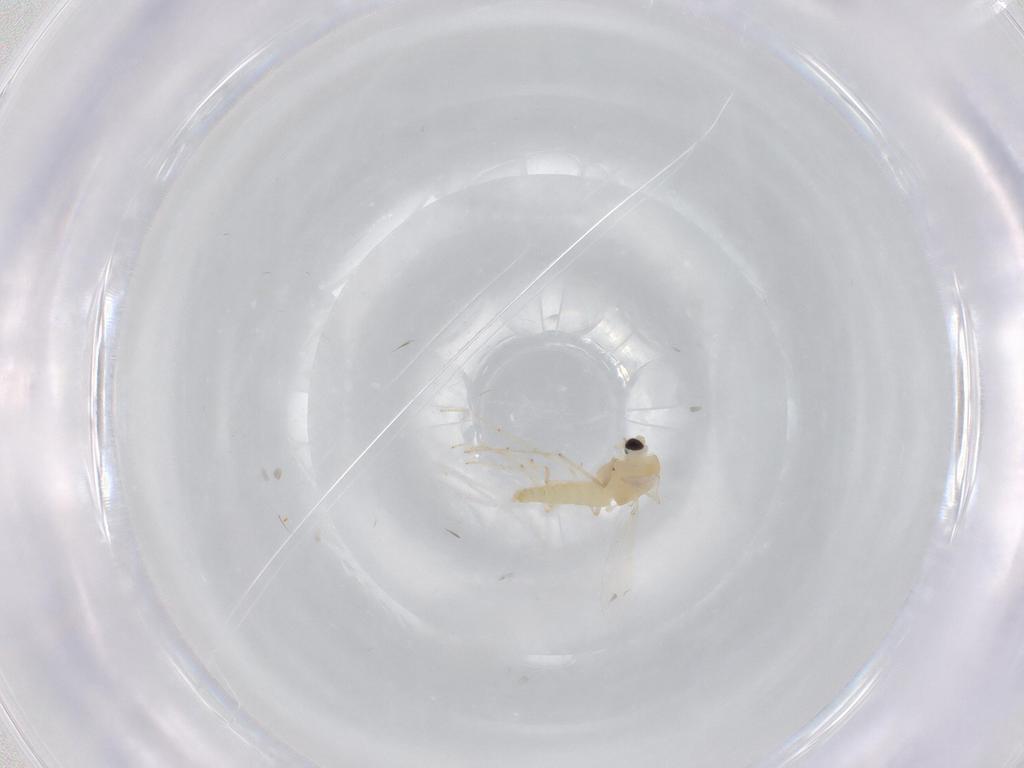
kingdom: Animalia
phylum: Arthropoda
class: Insecta
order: Diptera
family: Chironomidae
